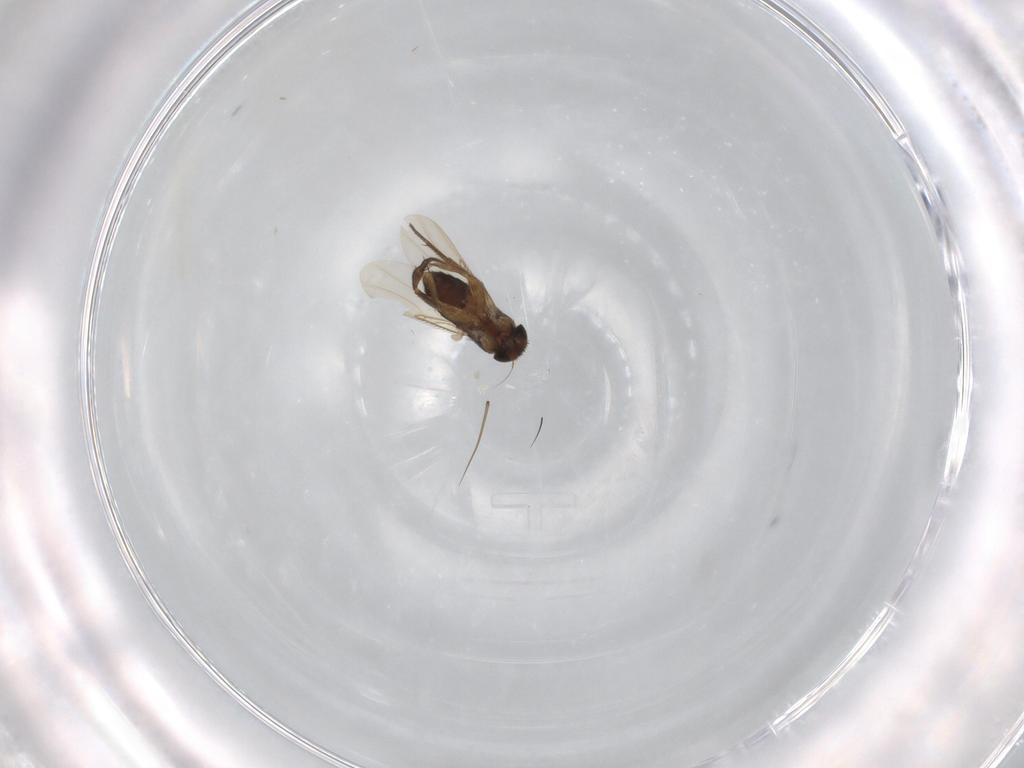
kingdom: Animalia
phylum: Arthropoda
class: Insecta
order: Diptera
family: Phoridae
